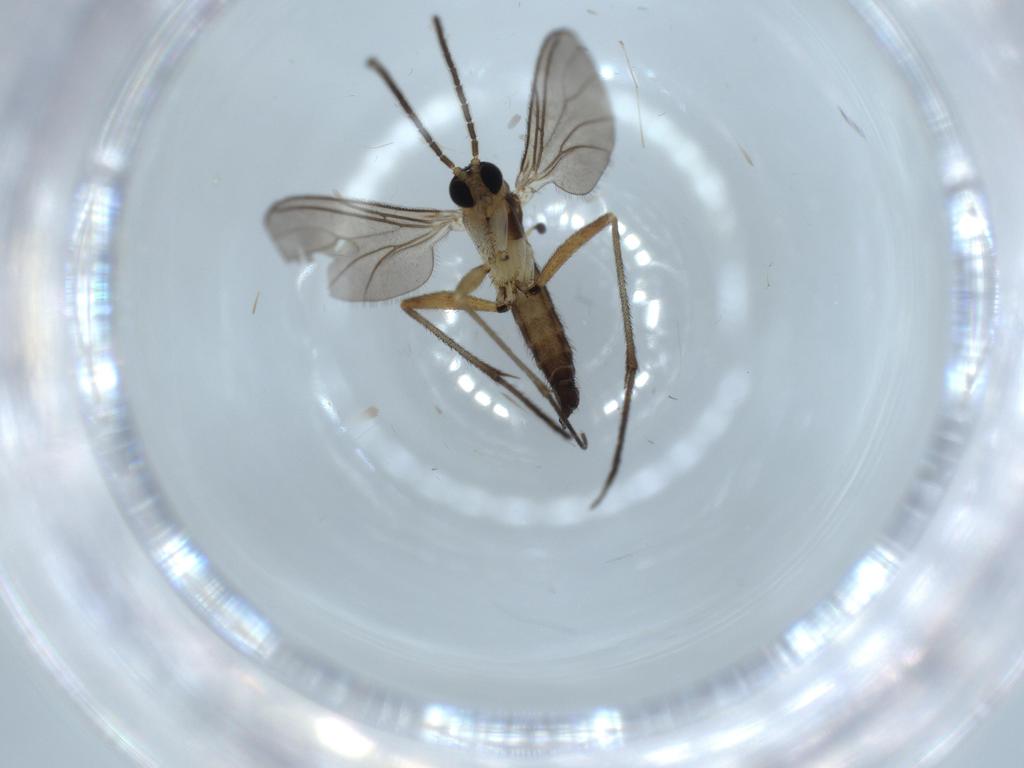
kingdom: Animalia
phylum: Arthropoda
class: Insecta
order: Diptera
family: Sciaridae
